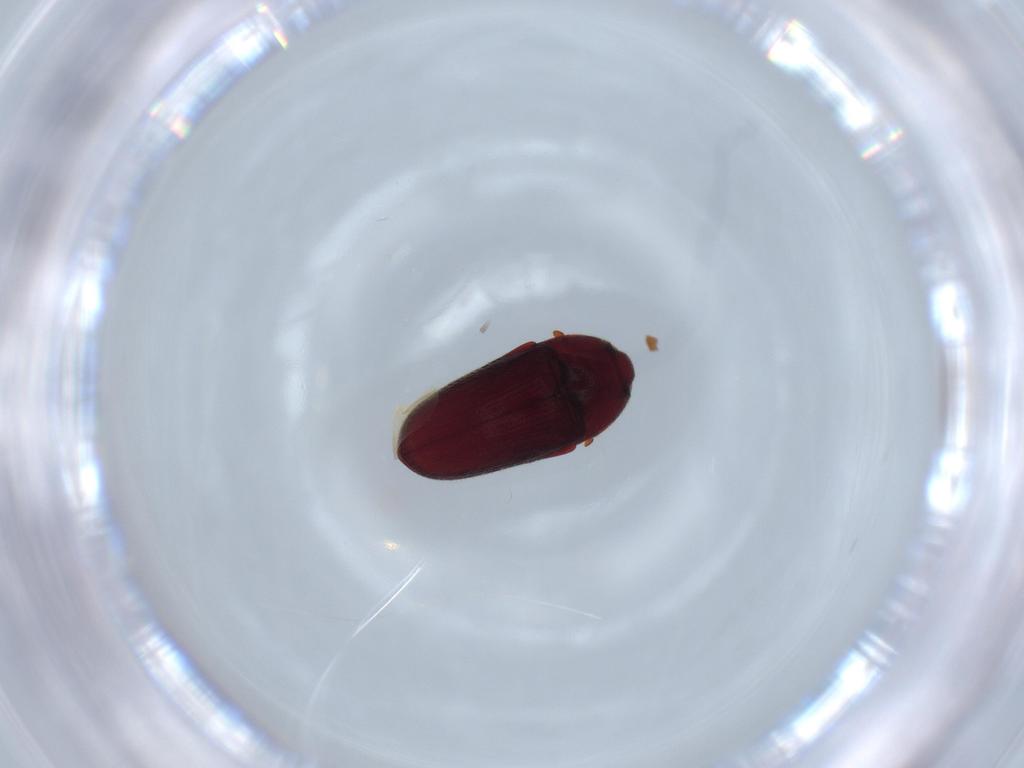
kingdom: Animalia
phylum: Arthropoda
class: Insecta
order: Coleoptera
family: Throscidae
